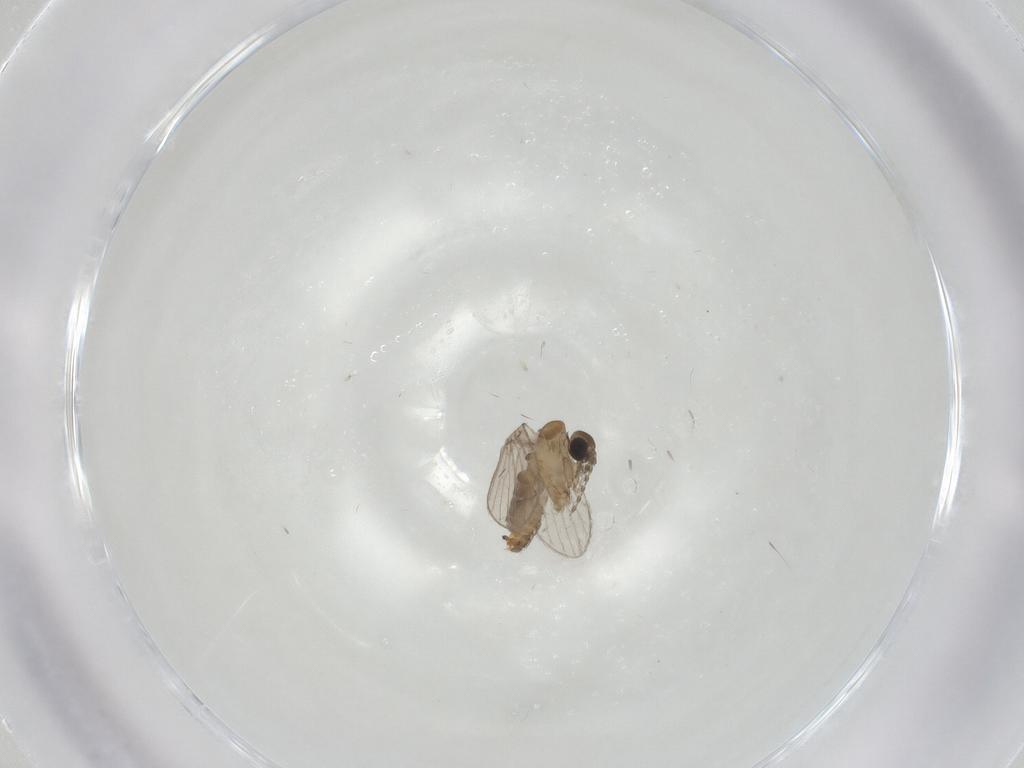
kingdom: Animalia
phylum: Arthropoda
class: Insecta
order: Diptera
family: Psychodidae
